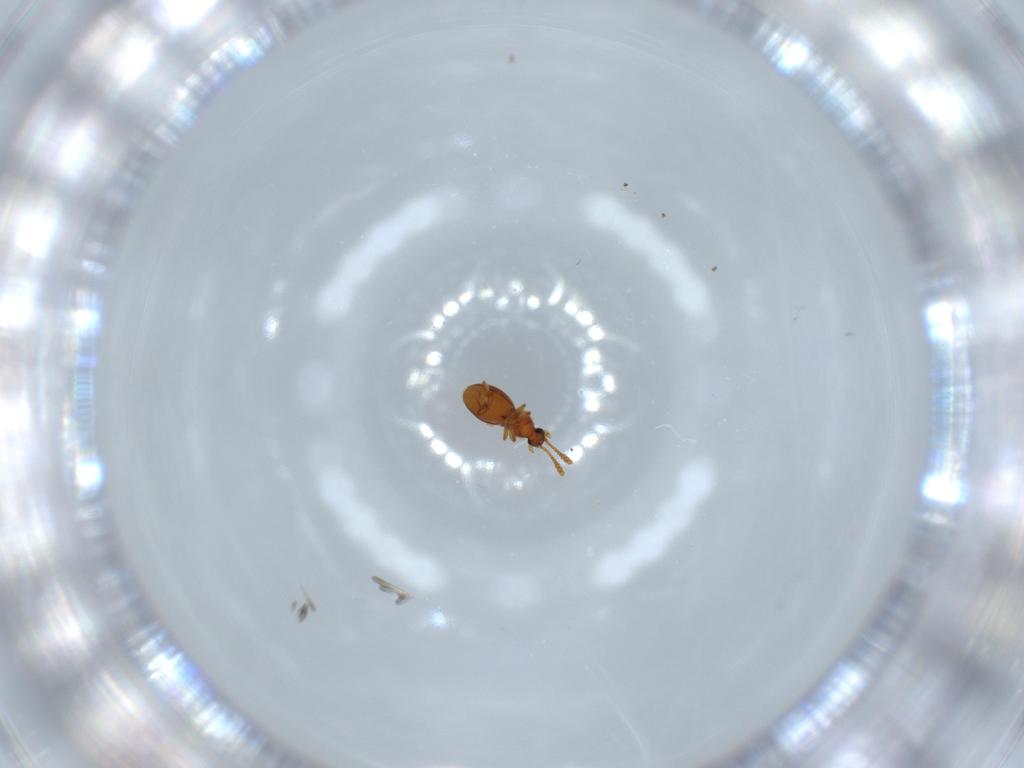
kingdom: Animalia
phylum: Arthropoda
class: Insecta
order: Coleoptera
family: Staphylinidae
